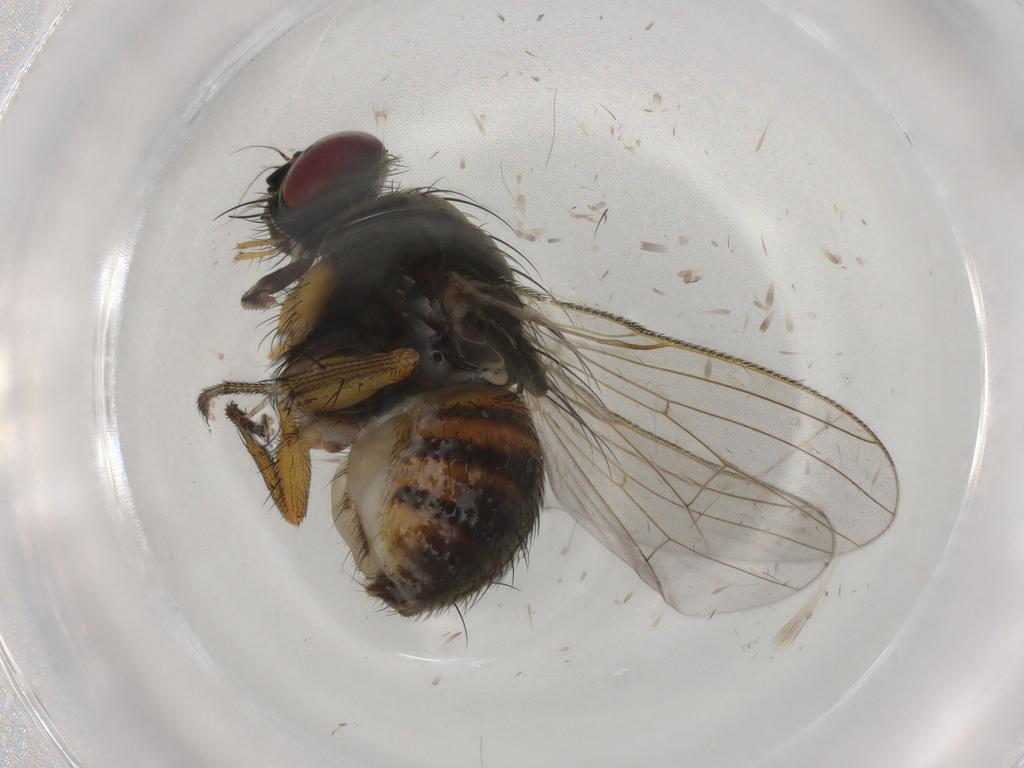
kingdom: Animalia
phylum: Arthropoda
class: Insecta
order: Diptera
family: Muscidae
